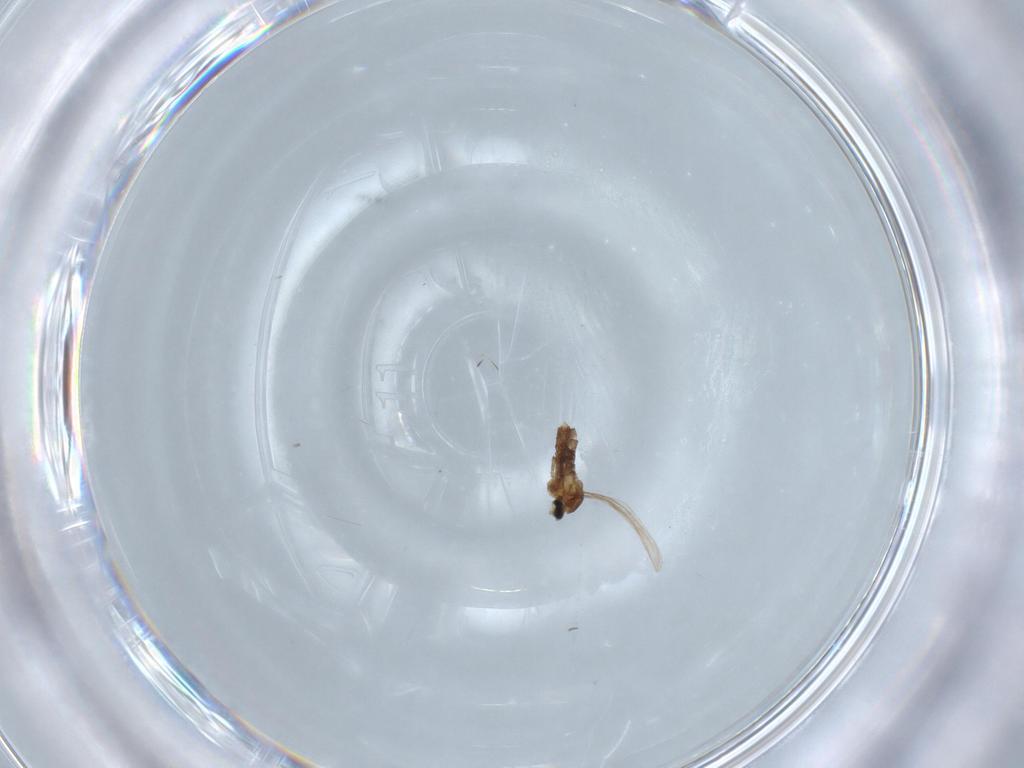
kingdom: Animalia
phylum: Arthropoda
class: Insecta
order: Diptera
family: Cecidomyiidae
